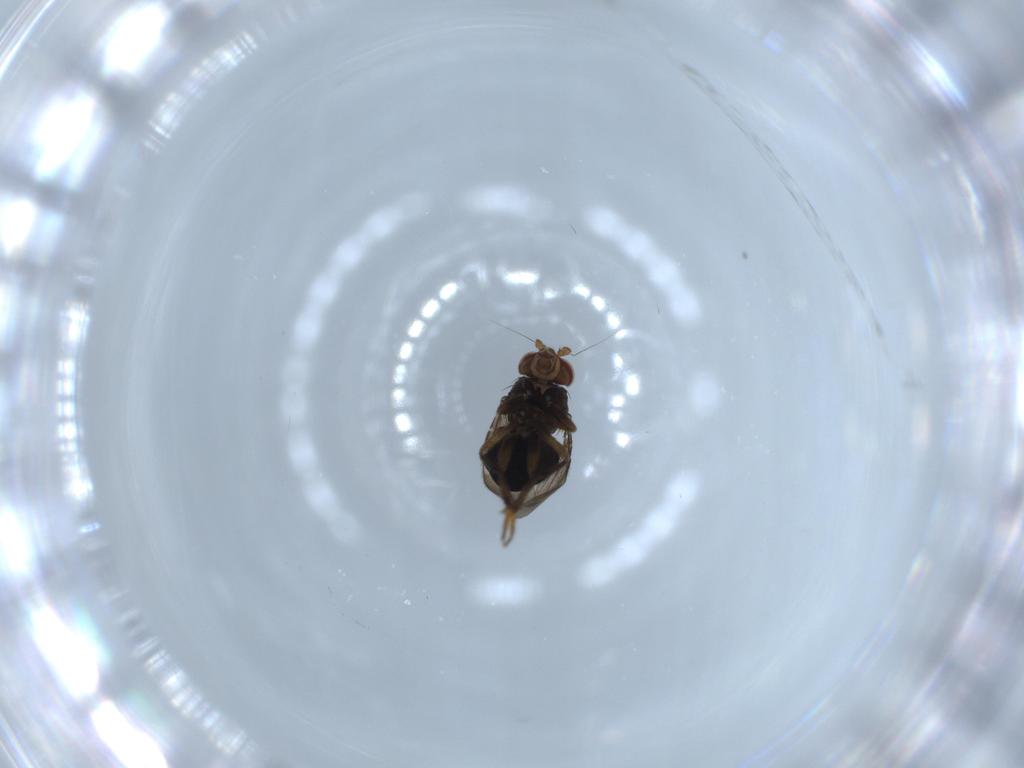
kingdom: Animalia
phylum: Arthropoda
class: Insecta
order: Diptera
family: Sphaeroceridae
